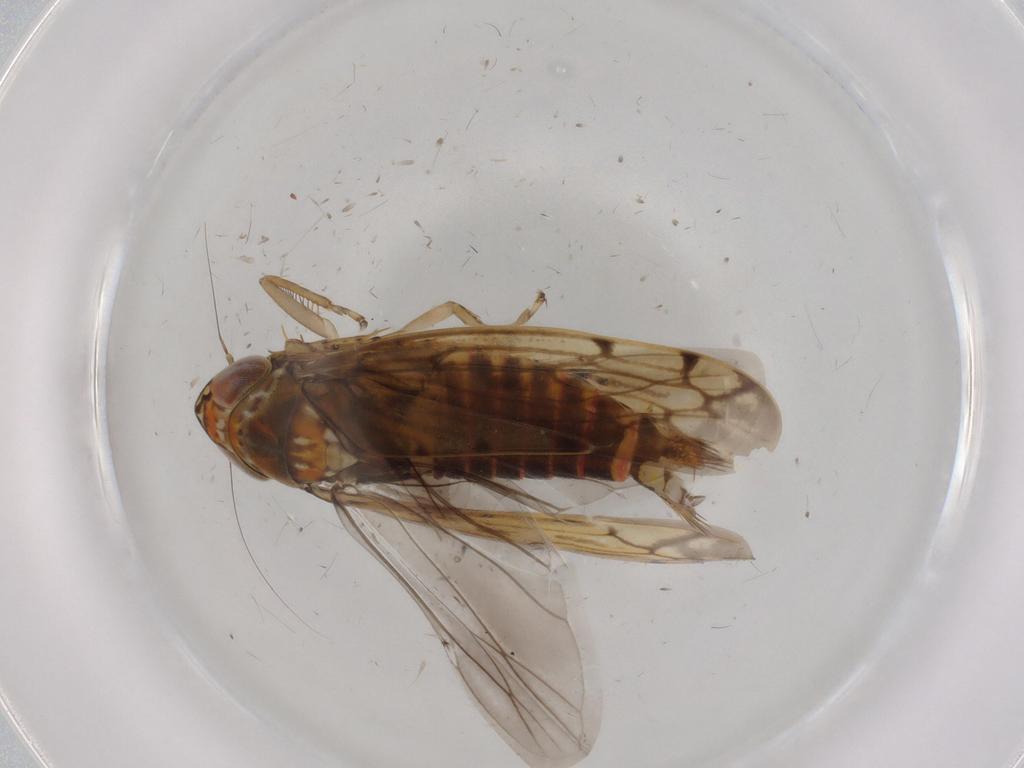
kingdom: Animalia
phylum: Arthropoda
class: Insecta
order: Hemiptera
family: Cicadellidae
